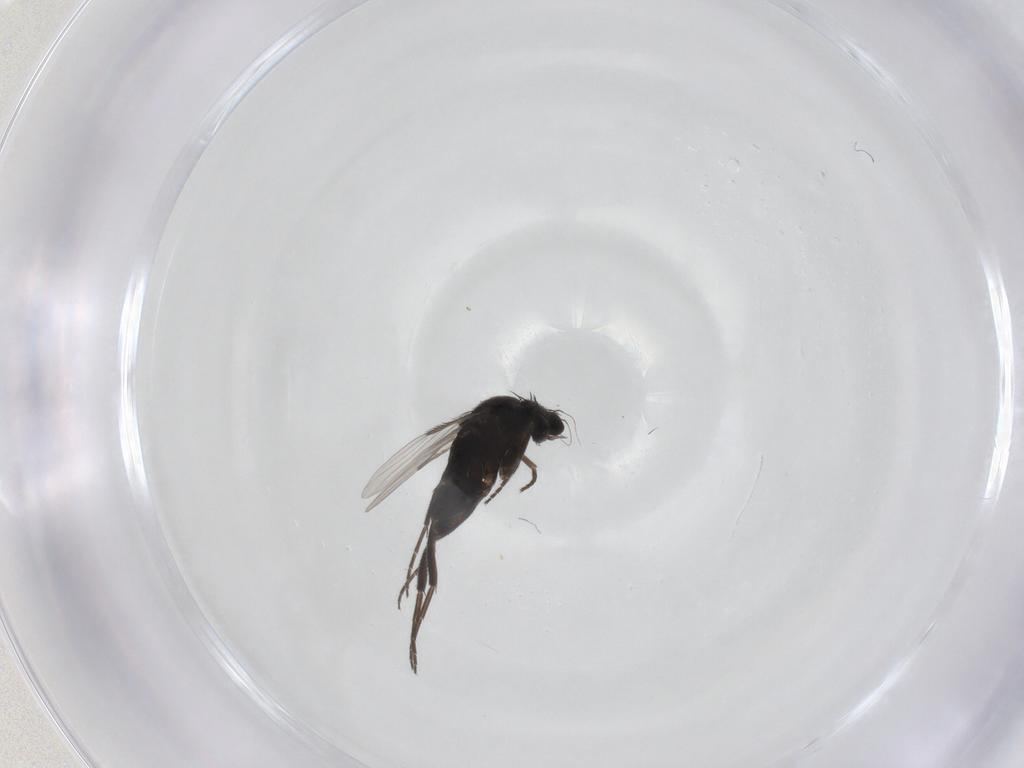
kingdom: Animalia
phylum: Arthropoda
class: Insecta
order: Diptera
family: Phoridae
